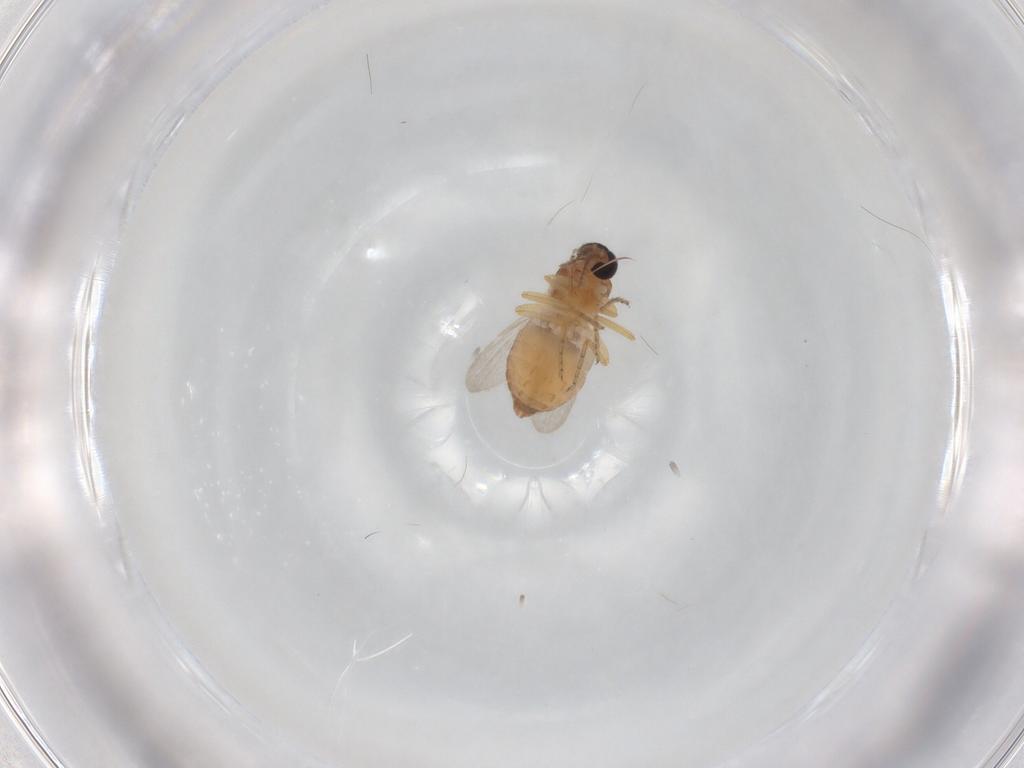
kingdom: Animalia
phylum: Arthropoda
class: Insecta
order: Diptera
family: Ceratopogonidae
